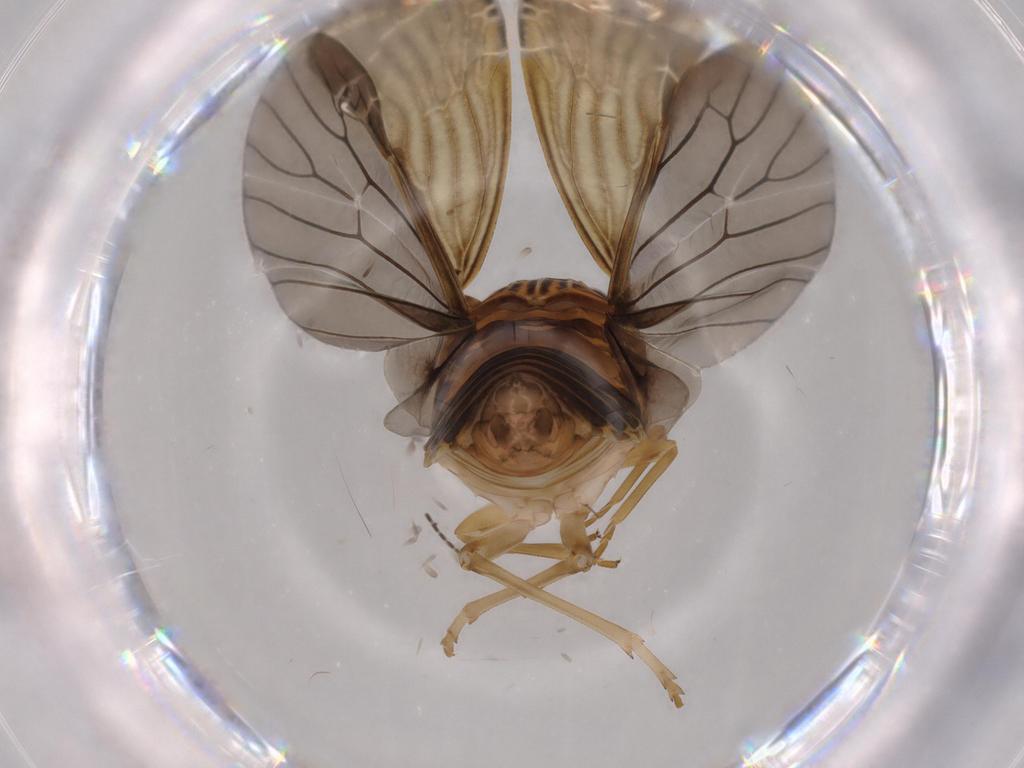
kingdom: Animalia
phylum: Arthropoda
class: Insecta
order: Hemiptera
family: Achilidae
